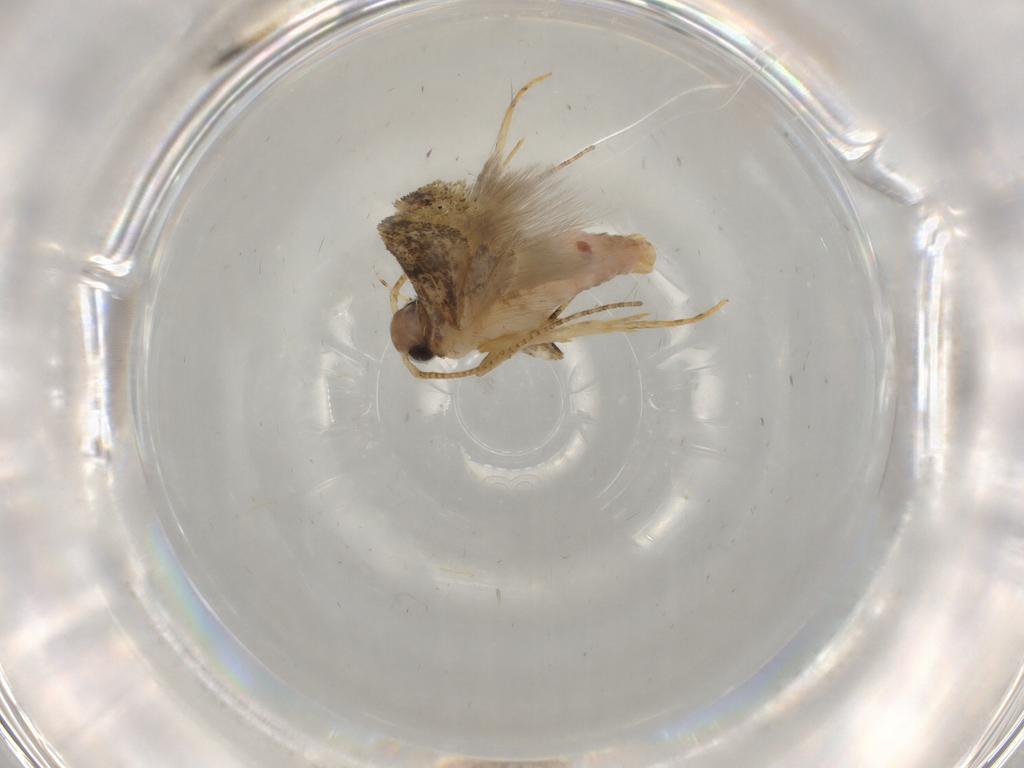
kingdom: Animalia
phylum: Arthropoda
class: Insecta
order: Lepidoptera
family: Gelechiidae
